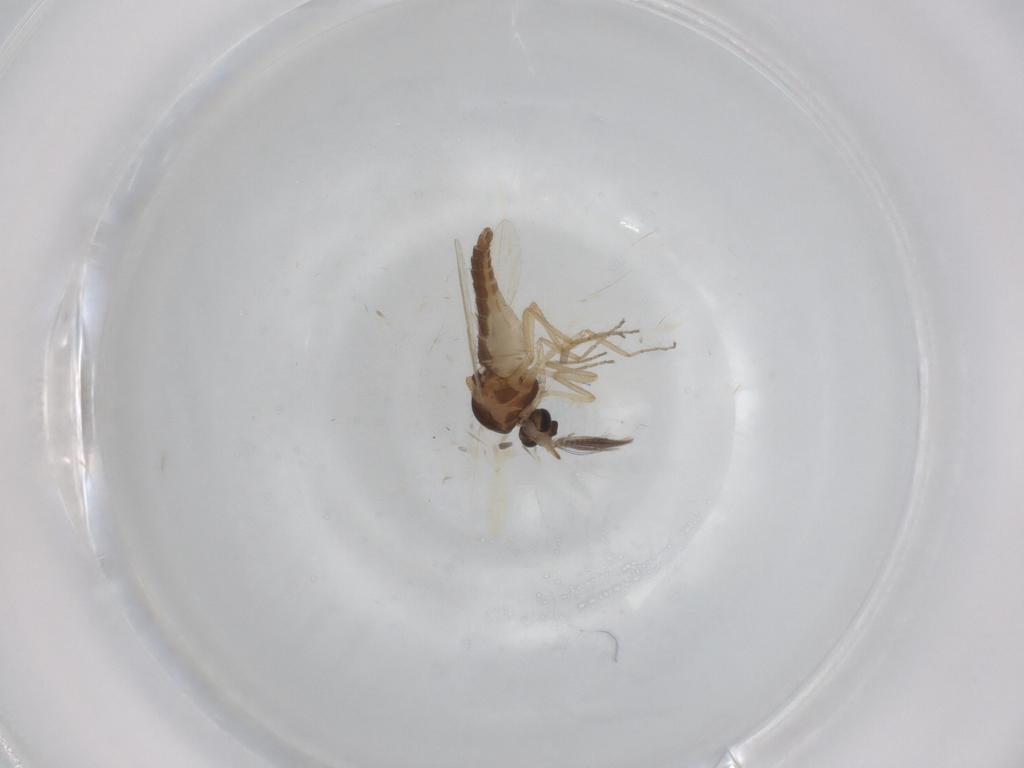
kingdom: Animalia
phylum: Arthropoda
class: Insecta
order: Diptera
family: Ceratopogonidae
